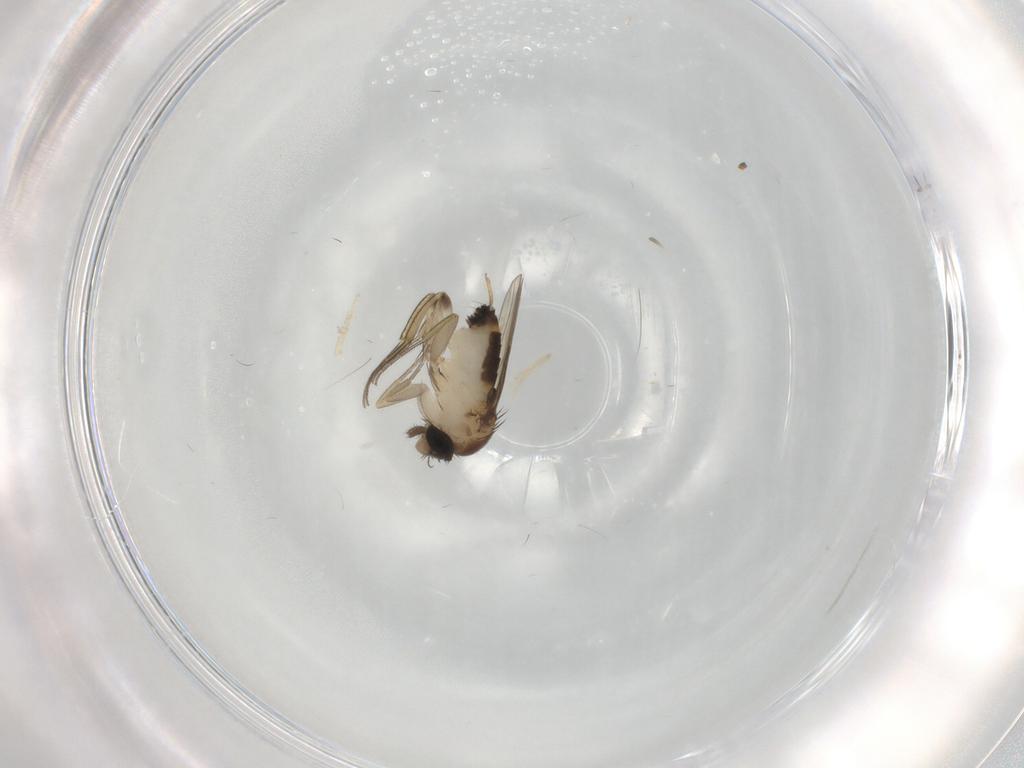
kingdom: Animalia
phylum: Arthropoda
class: Insecta
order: Diptera
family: Phoridae
